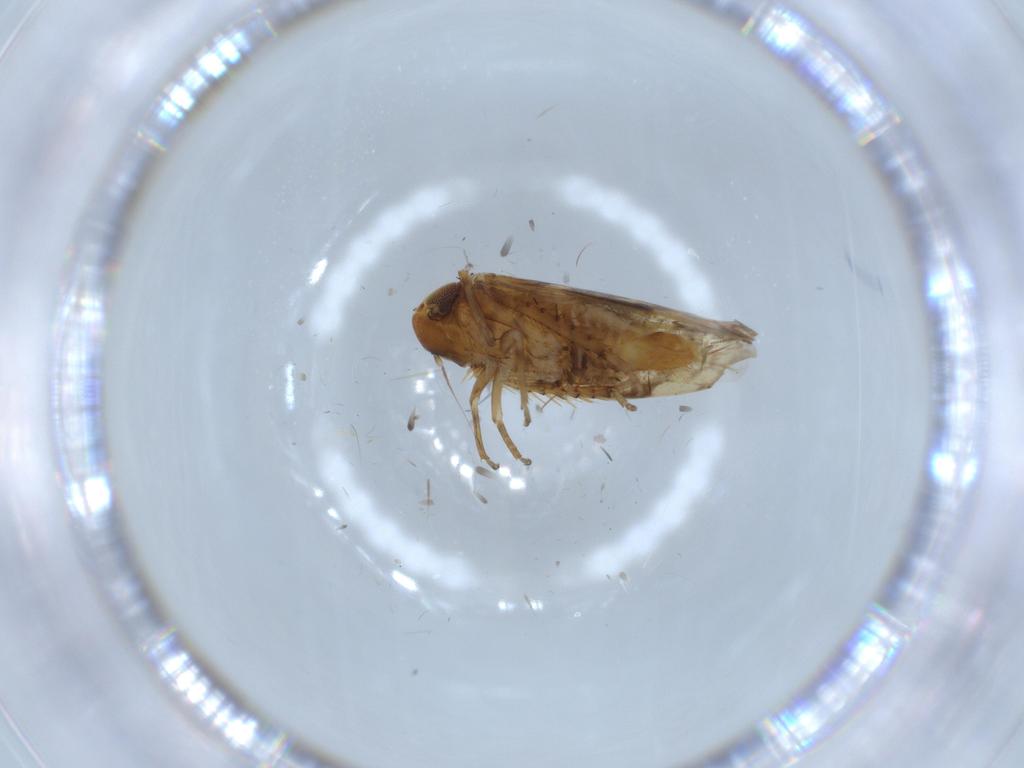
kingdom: Animalia
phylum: Arthropoda
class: Insecta
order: Hemiptera
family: Cicadellidae
